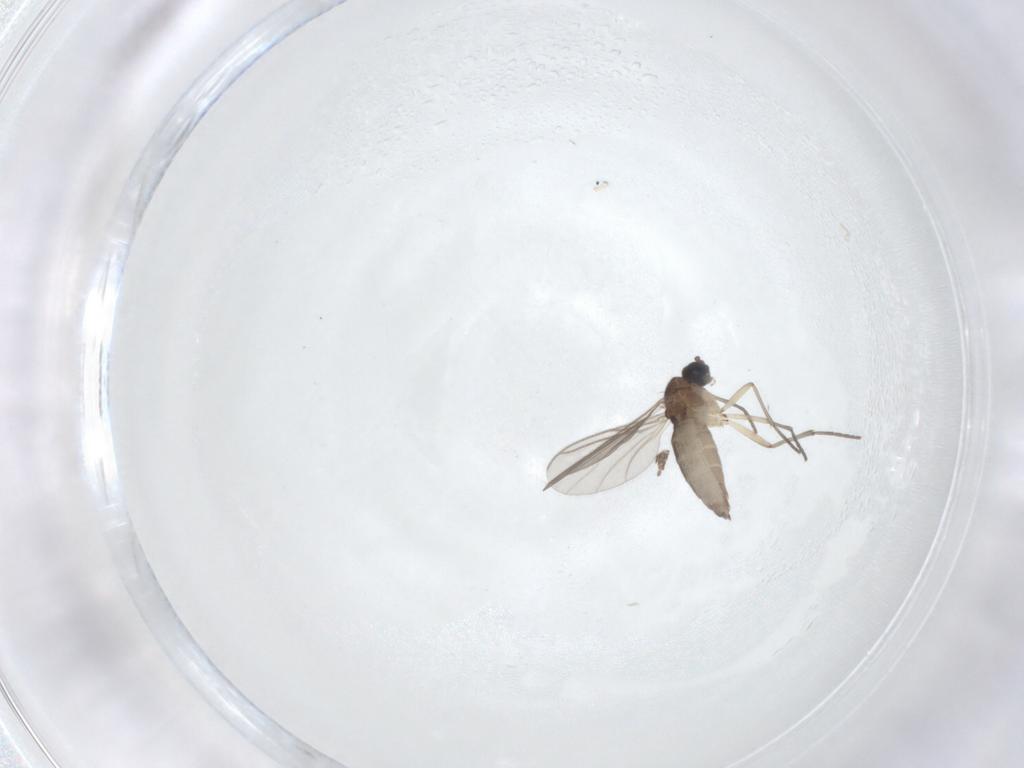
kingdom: Animalia
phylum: Arthropoda
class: Insecta
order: Diptera
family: Sciaridae
